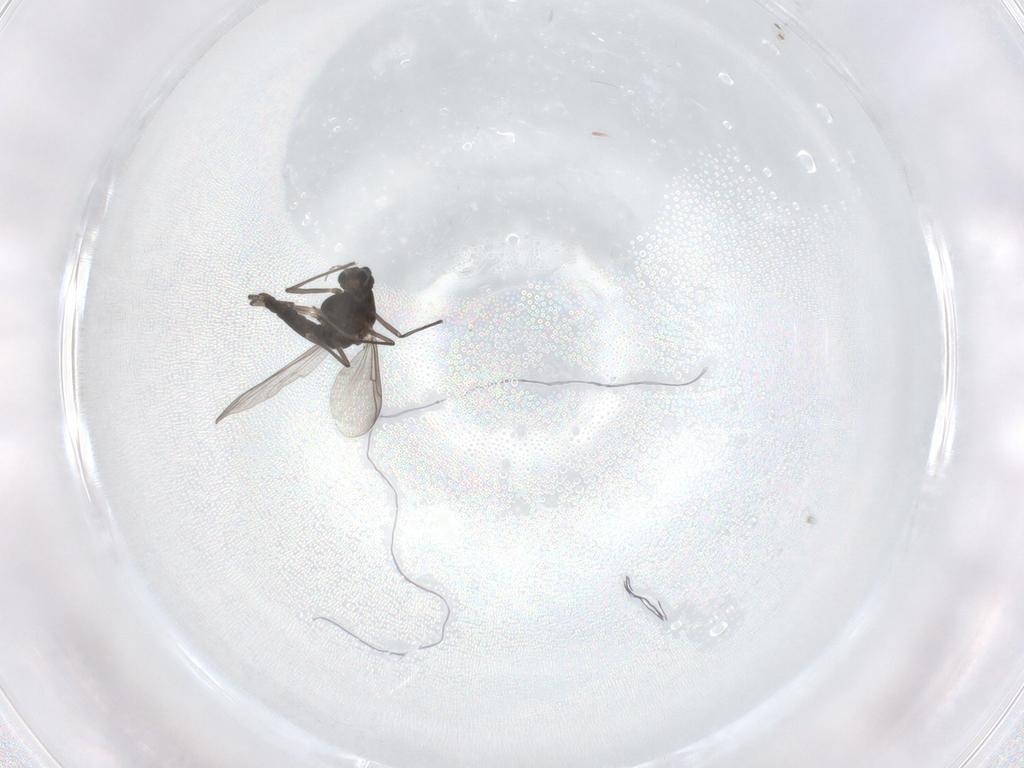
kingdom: Animalia
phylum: Arthropoda
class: Insecta
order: Diptera
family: Chironomidae
